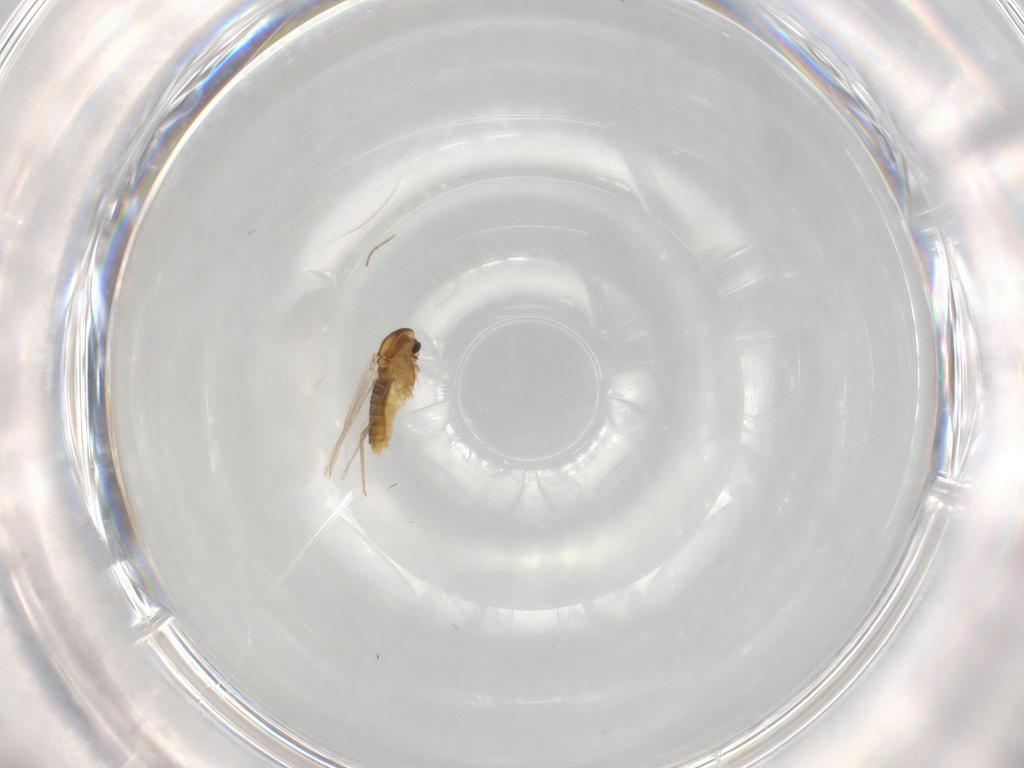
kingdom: Animalia
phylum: Arthropoda
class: Insecta
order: Diptera
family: Chironomidae
